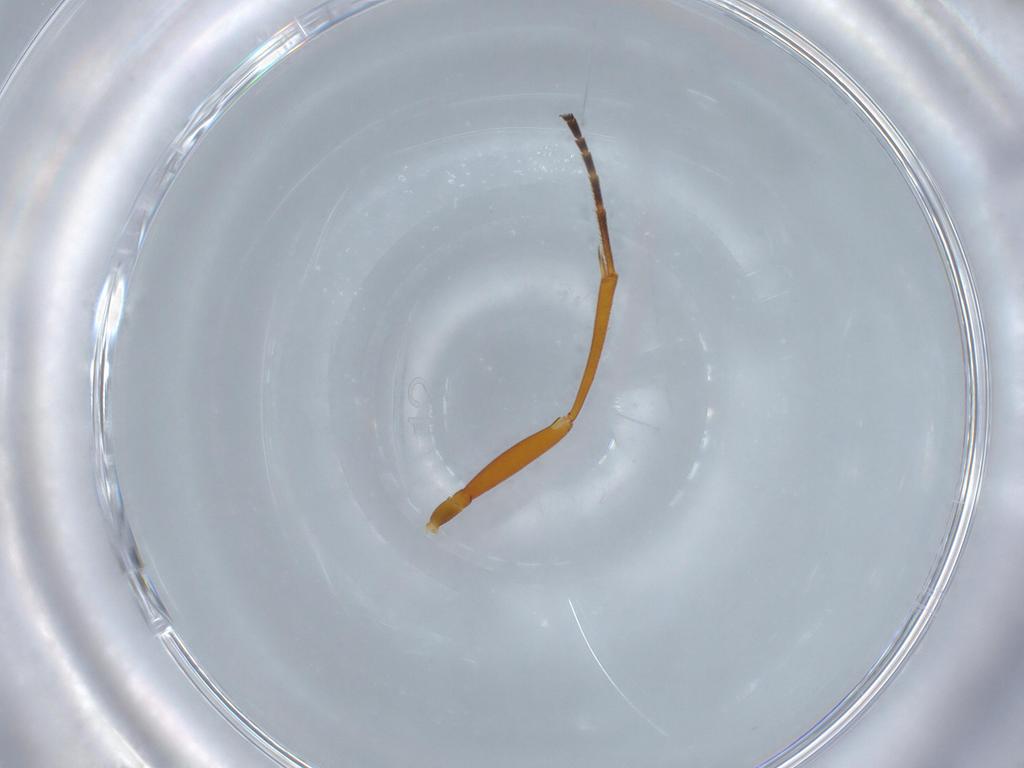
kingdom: Animalia
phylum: Arthropoda
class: Insecta
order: Hymenoptera
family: Ichneumonidae
